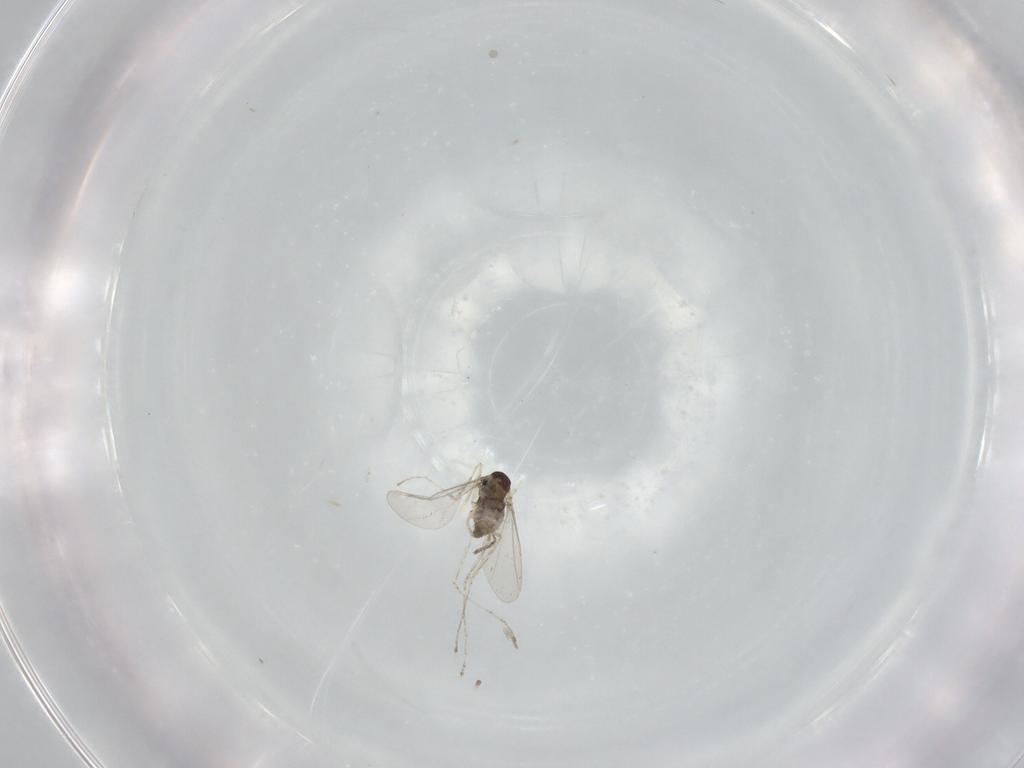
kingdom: Animalia
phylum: Arthropoda
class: Insecta
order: Diptera
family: Cecidomyiidae
